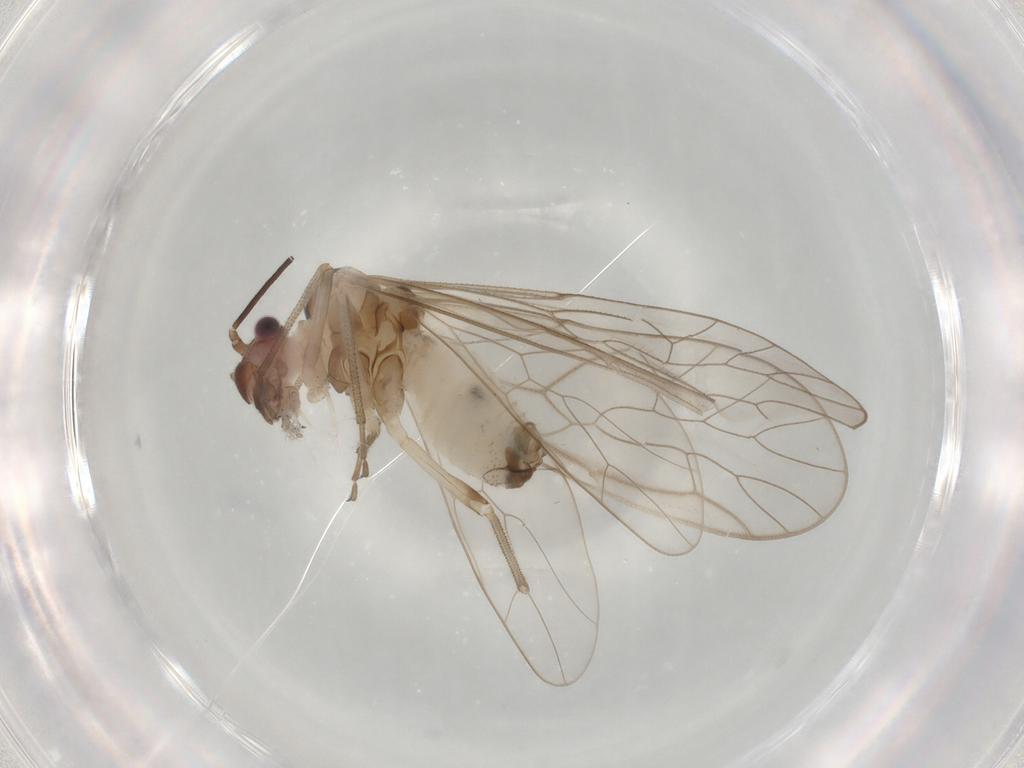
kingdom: Animalia
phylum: Arthropoda
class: Insecta
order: Psocodea
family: Stenopsocidae
